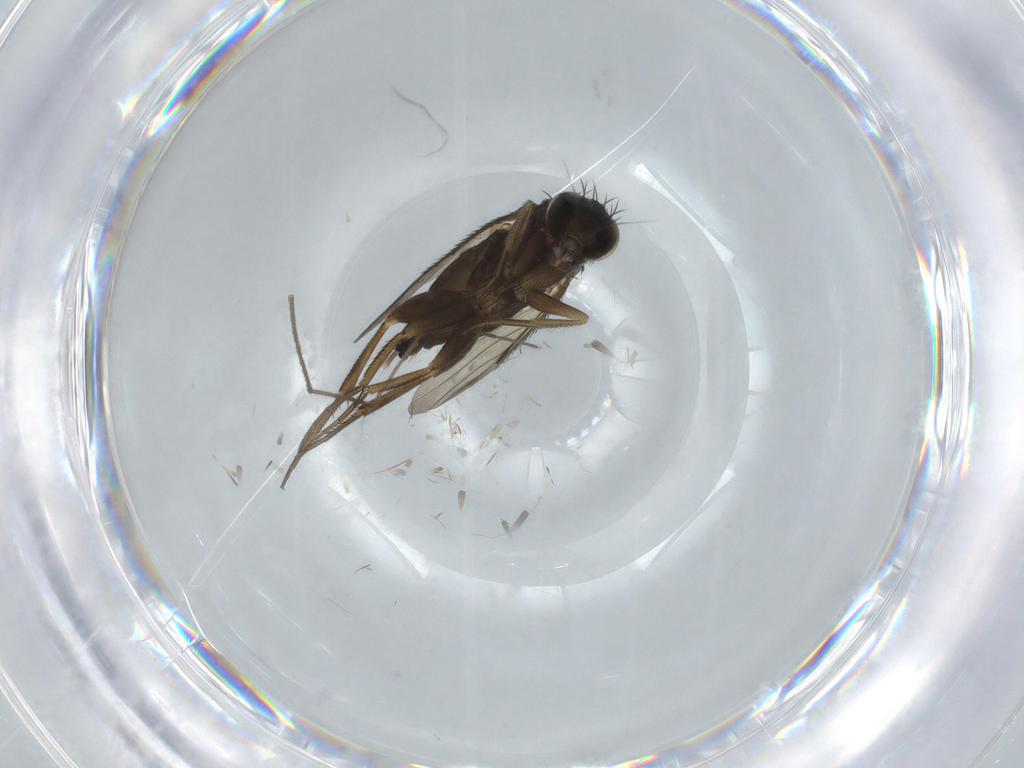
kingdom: Animalia
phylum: Arthropoda
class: Insecta
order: Diptera
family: Phoridae
